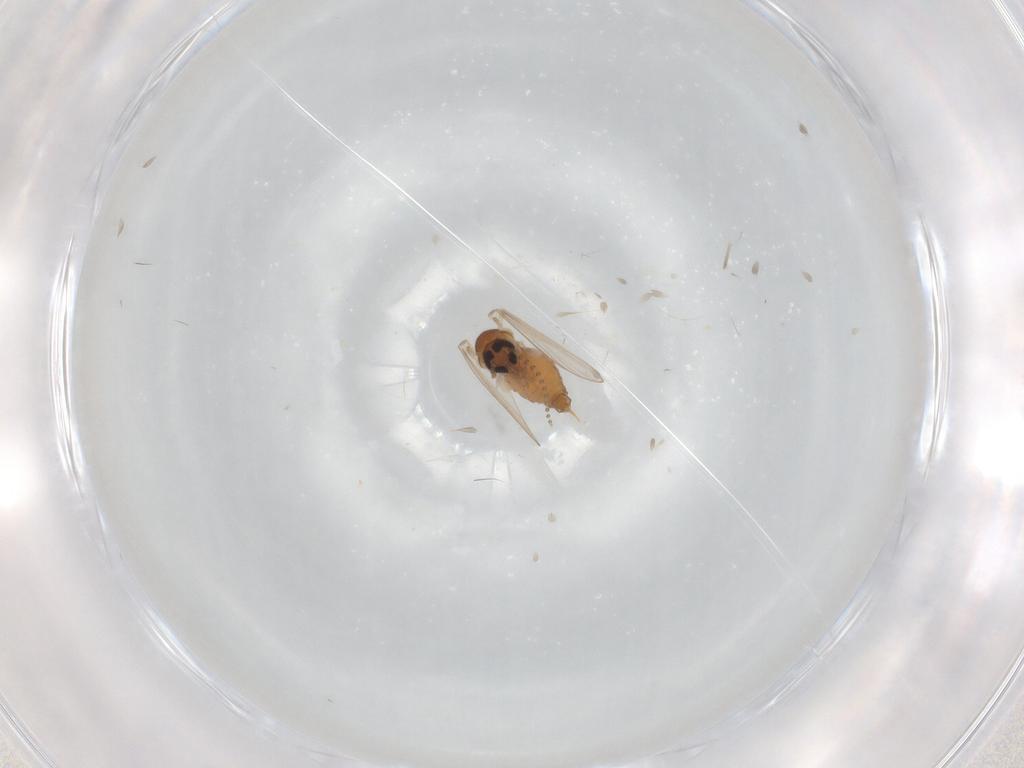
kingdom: Animalia
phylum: Arthropoda
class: Insecta
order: Diptera
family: Psychodidae
